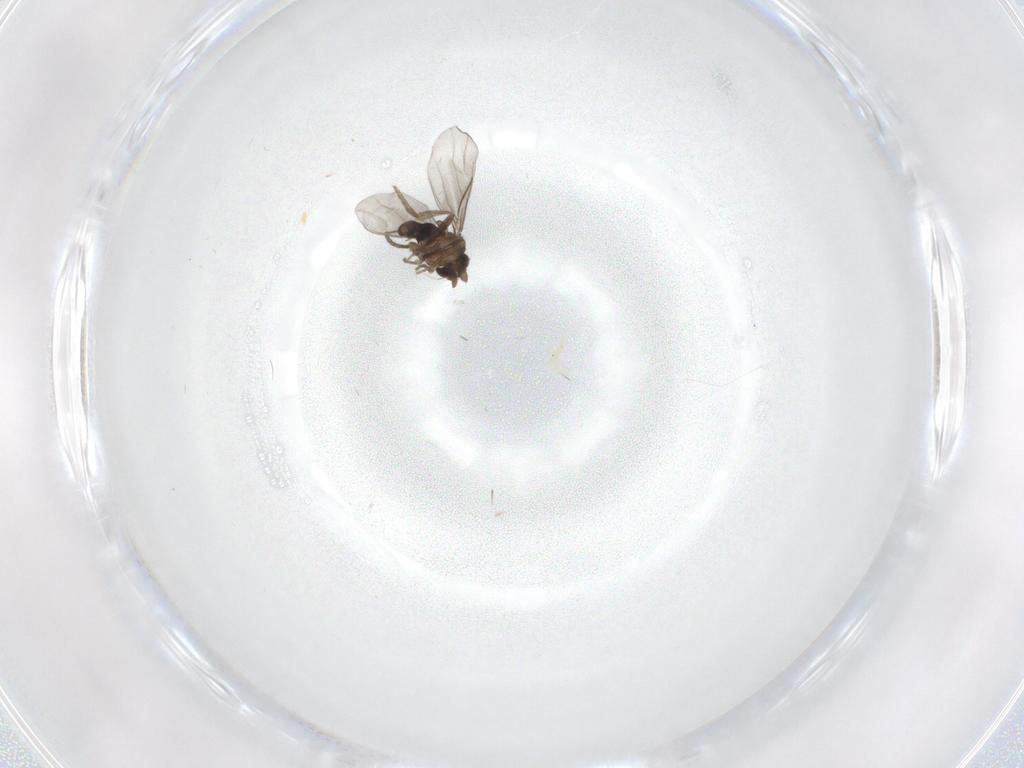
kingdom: Animalia
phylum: Arthropoda
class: Insecta
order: Diptera
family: Cecidomyiidae
